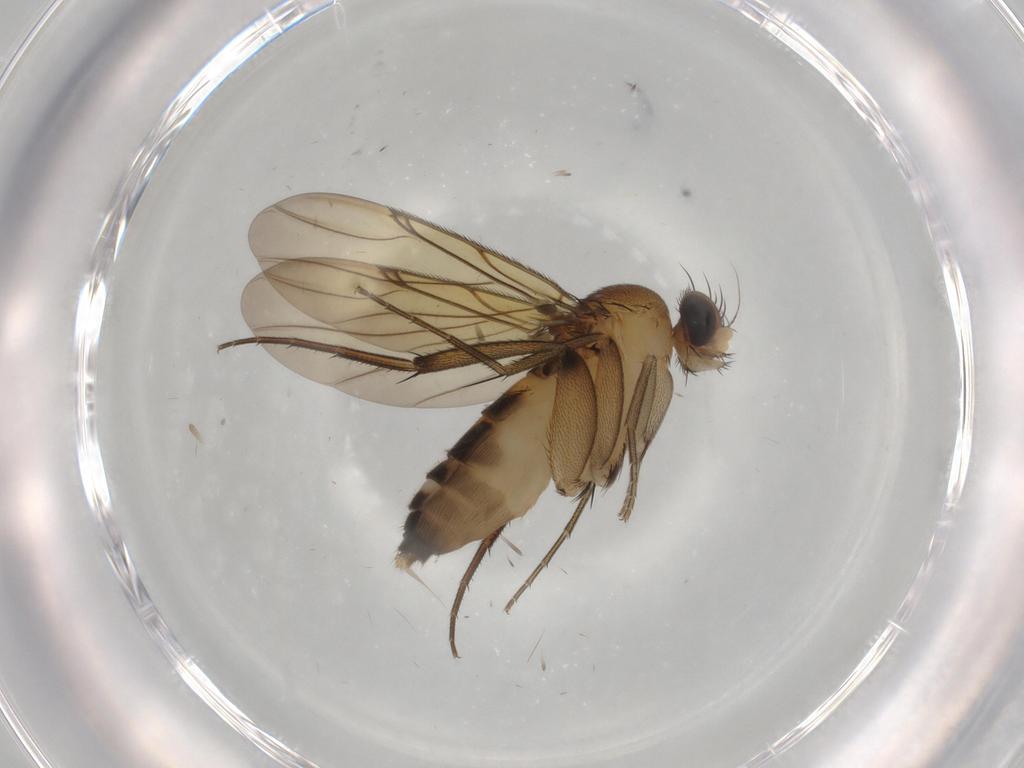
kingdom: Animalia
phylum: Arthropoda
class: Insecta
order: Diptera
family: Phoridae
